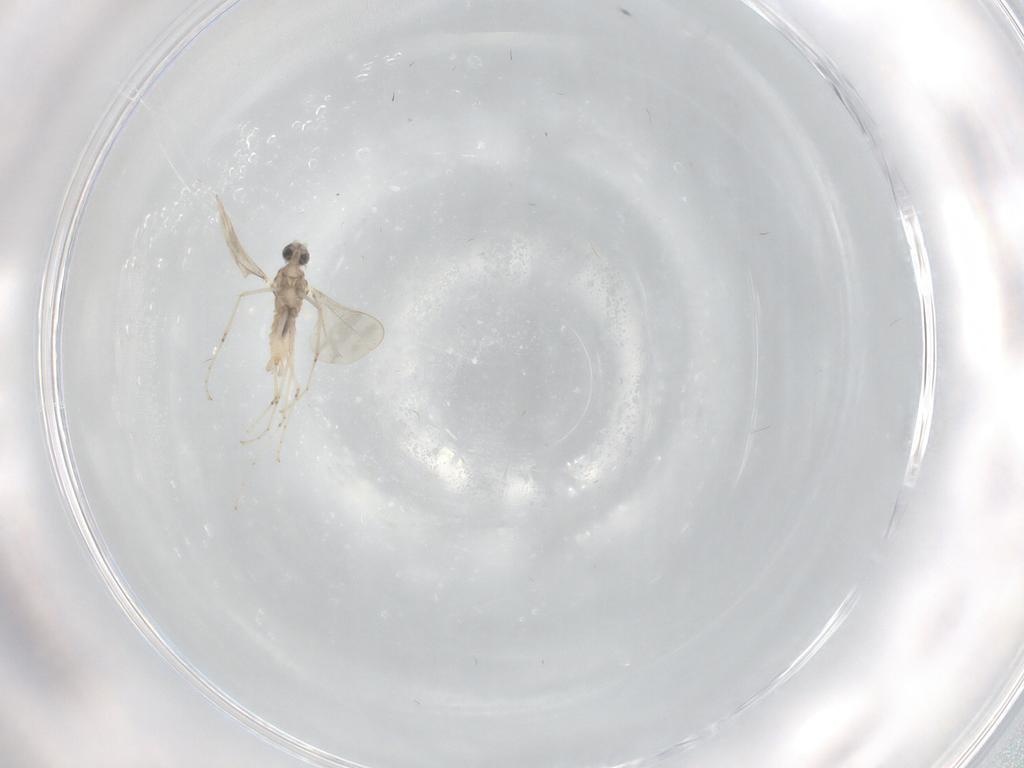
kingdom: Animalia
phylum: Arthropoda
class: Insecta
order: Diptera
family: Cecidomyiidae
